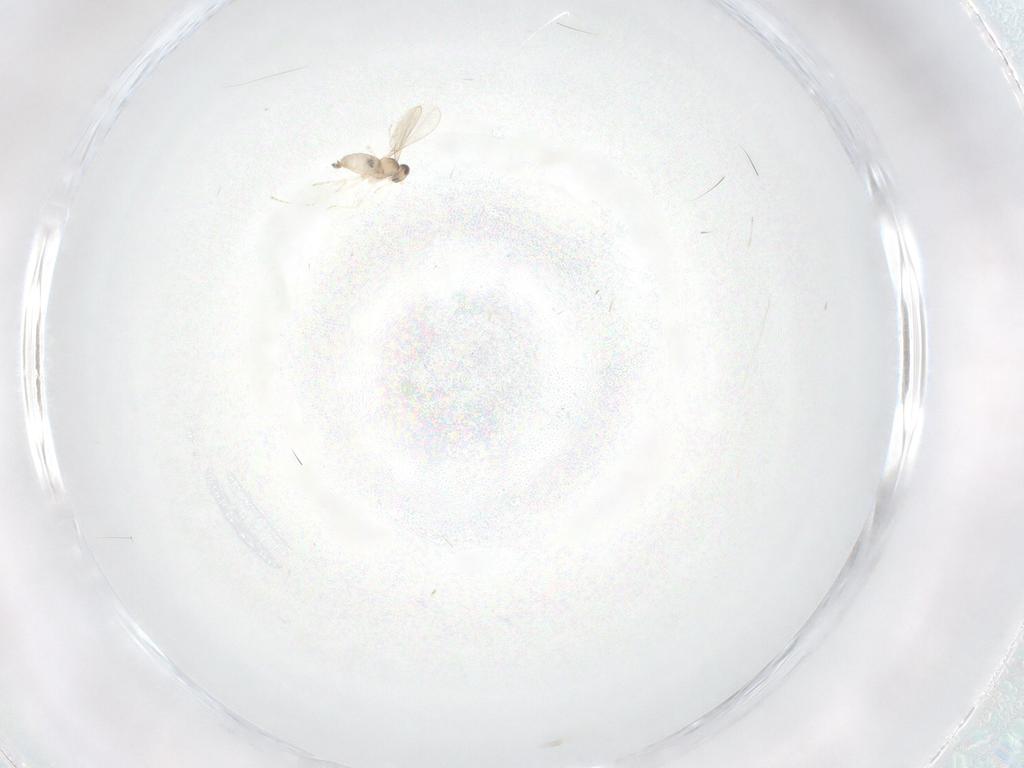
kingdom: Animalia
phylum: Arthropoda
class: Insecta
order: Diptera
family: Cecidomyiidae
